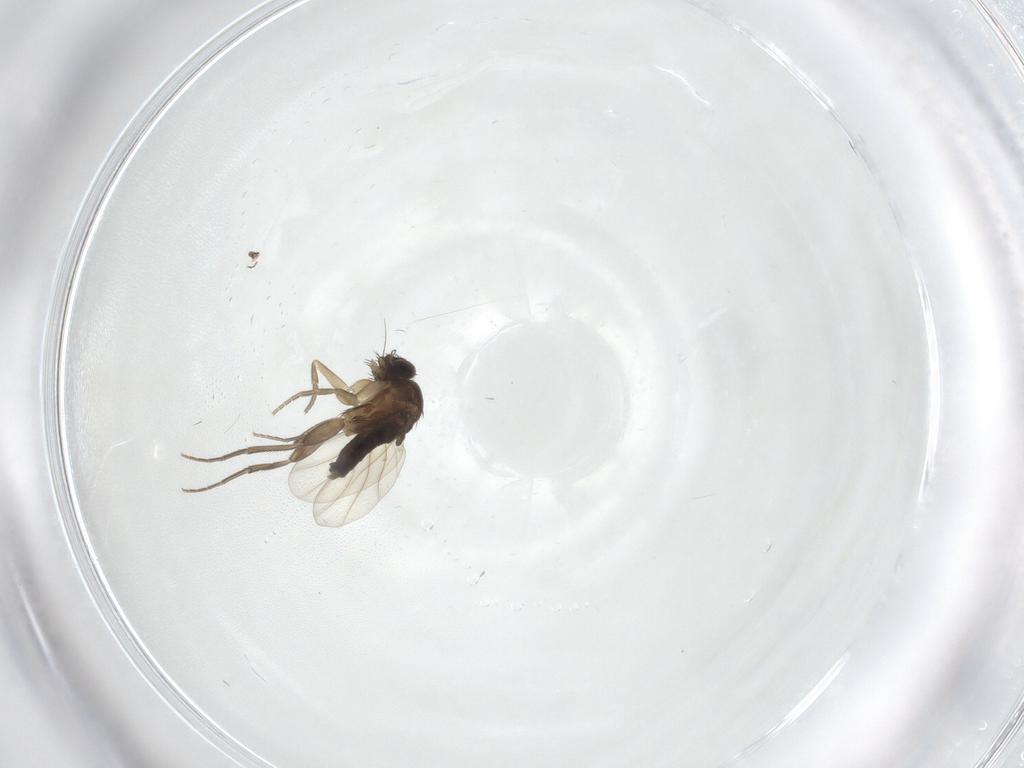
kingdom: Animalia
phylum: Arthropoda
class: Insecta
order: Diptera
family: Phoridae
